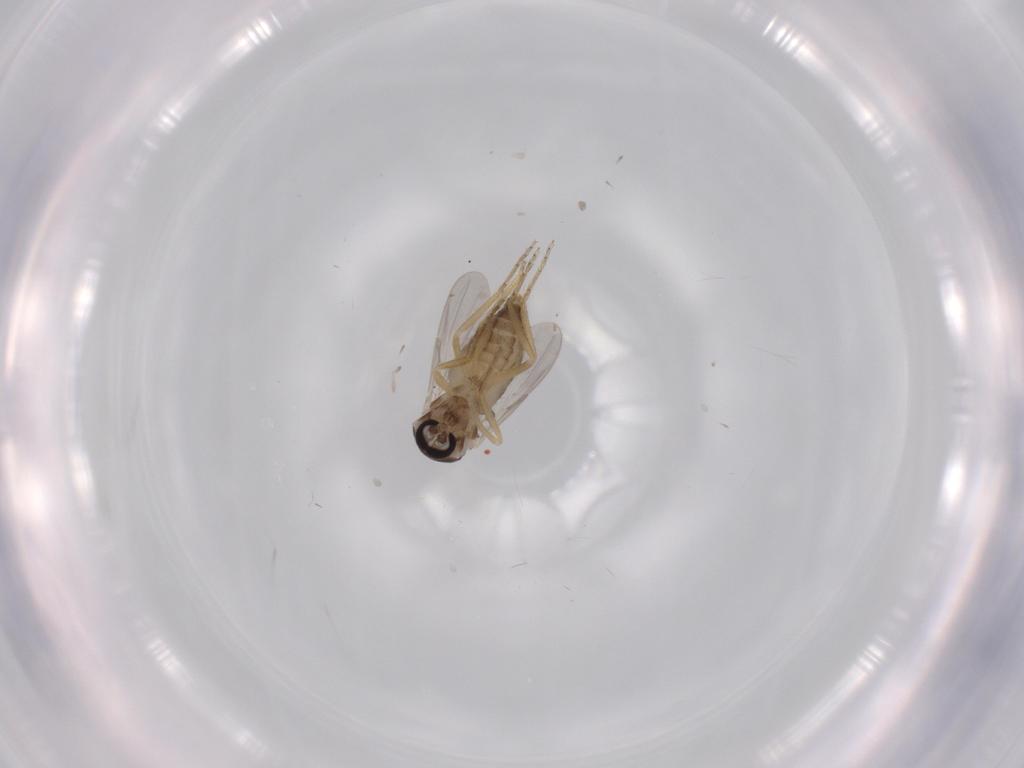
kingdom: Animalia
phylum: Arthropoda
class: Insecta
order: Diptera
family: Ceratopogonidae
